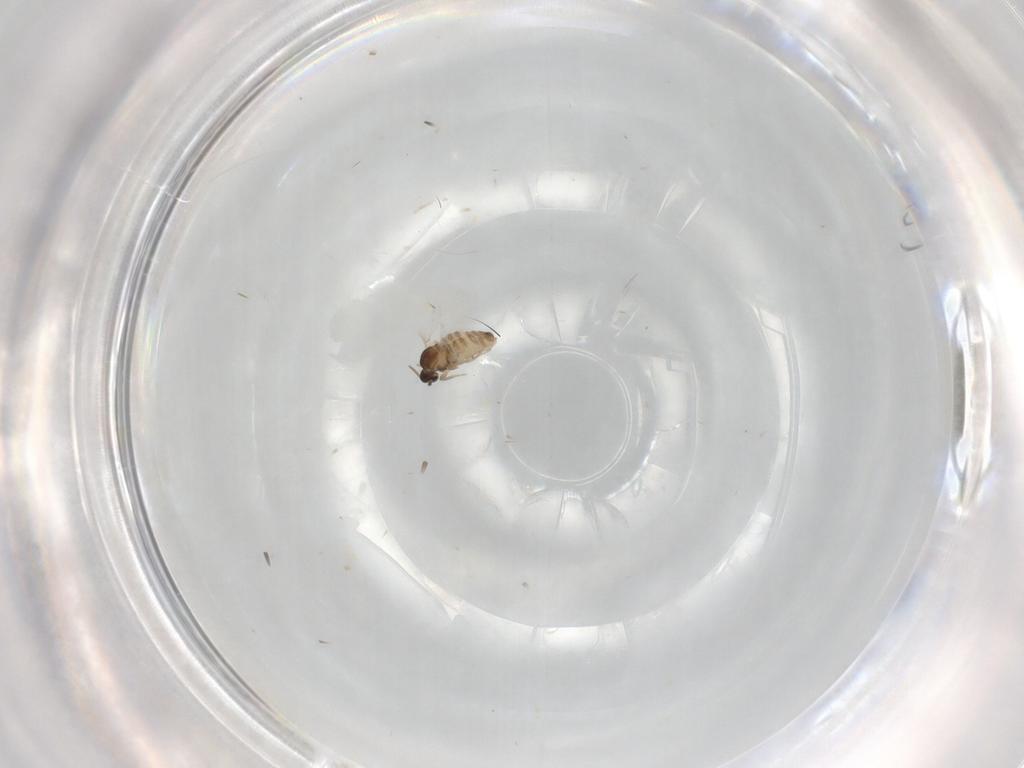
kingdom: Animalia
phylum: Arthropoda
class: Insecta
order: Diptera
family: Cecidomyiidae
